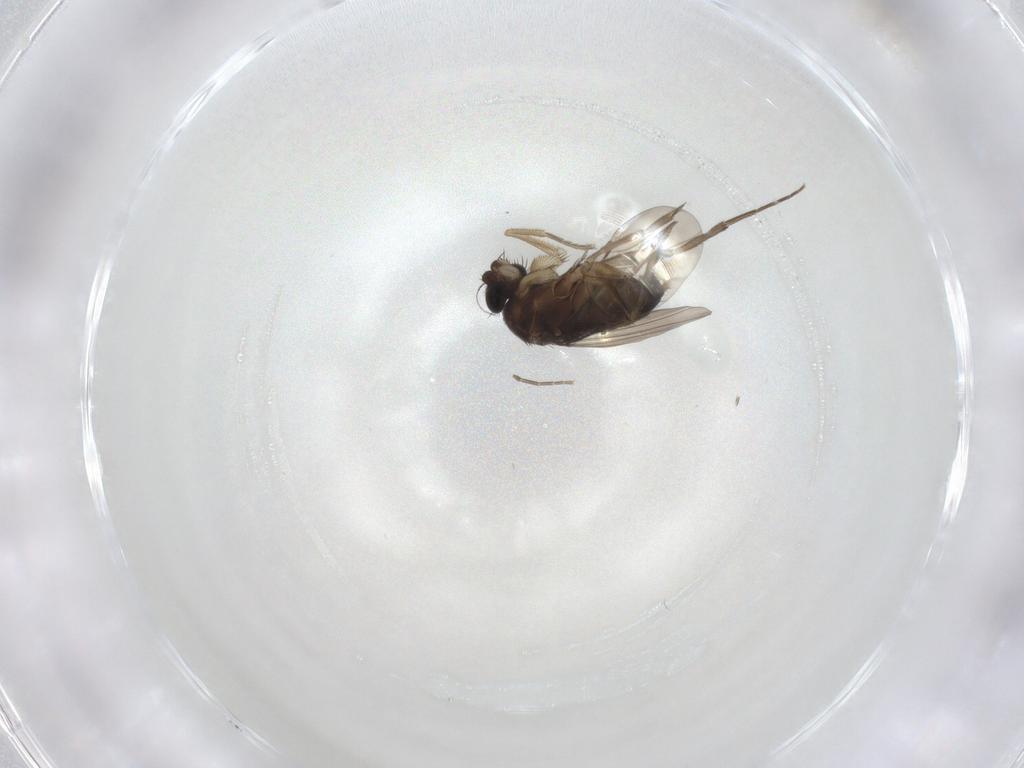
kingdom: Animalia
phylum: Arthropoda
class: Insecta
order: Diptera
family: Phoridae
